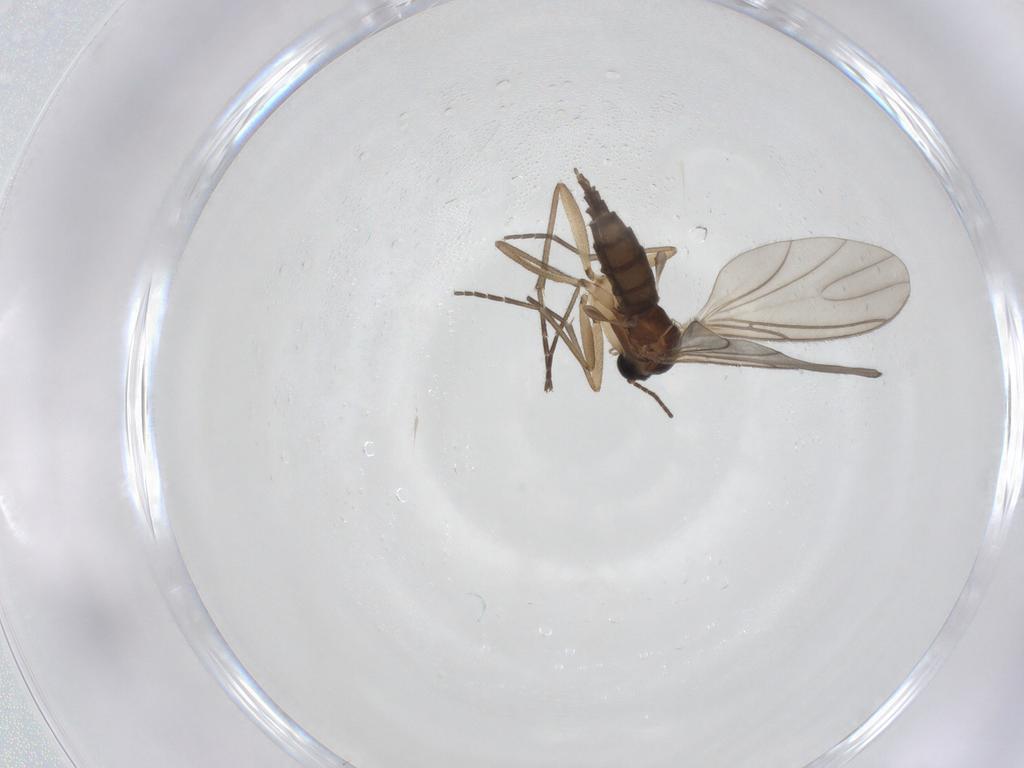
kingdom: Animalia
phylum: Arthropoda
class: Insecta
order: Diptera
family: Sciaridae
